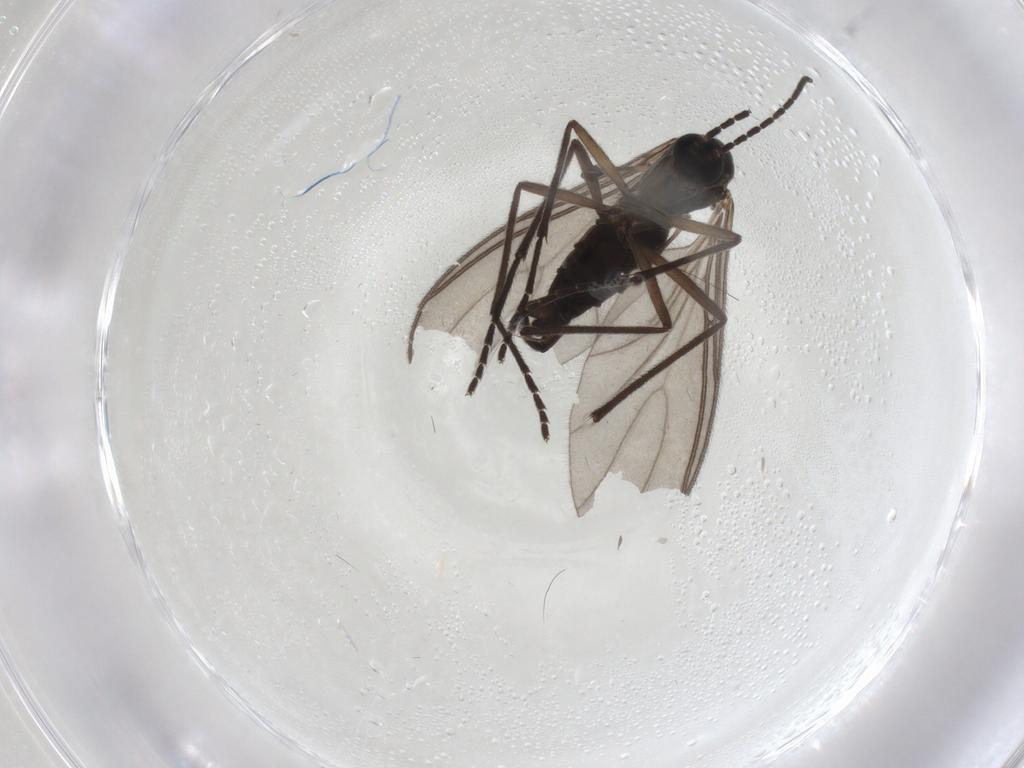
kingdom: Animalia
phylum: Arthropoda
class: Insecta
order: Diptera
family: Sciaridae
